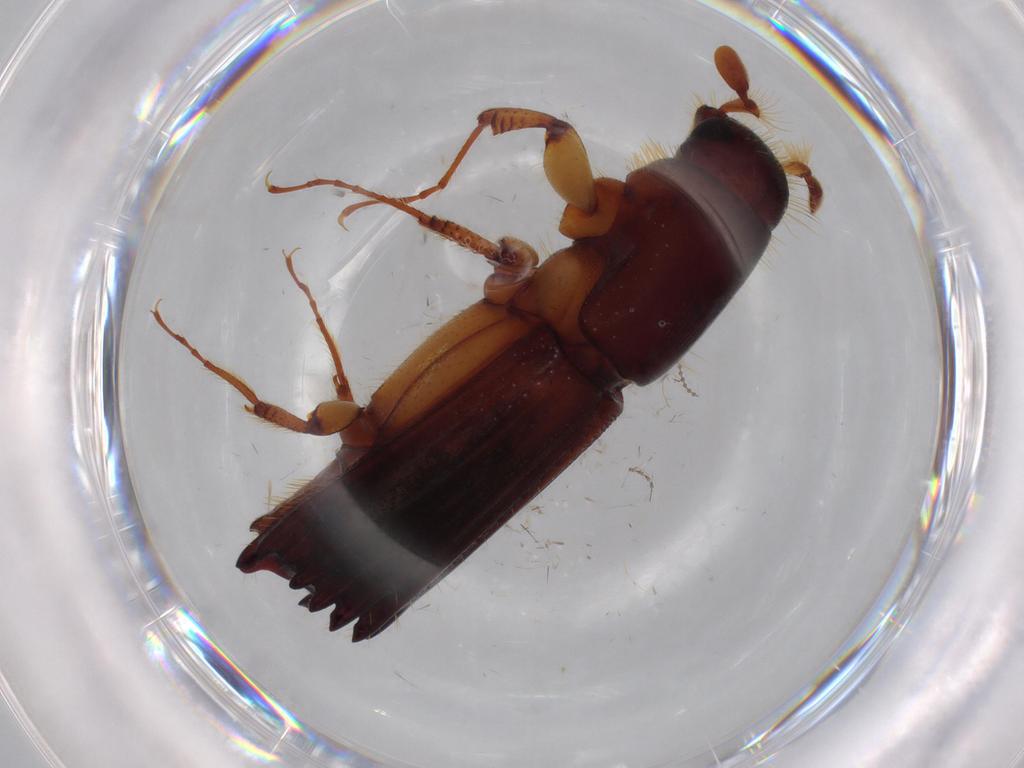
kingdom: Animalia
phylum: Arthropoda
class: Insecta
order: Coleoptera
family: Curculionidae
